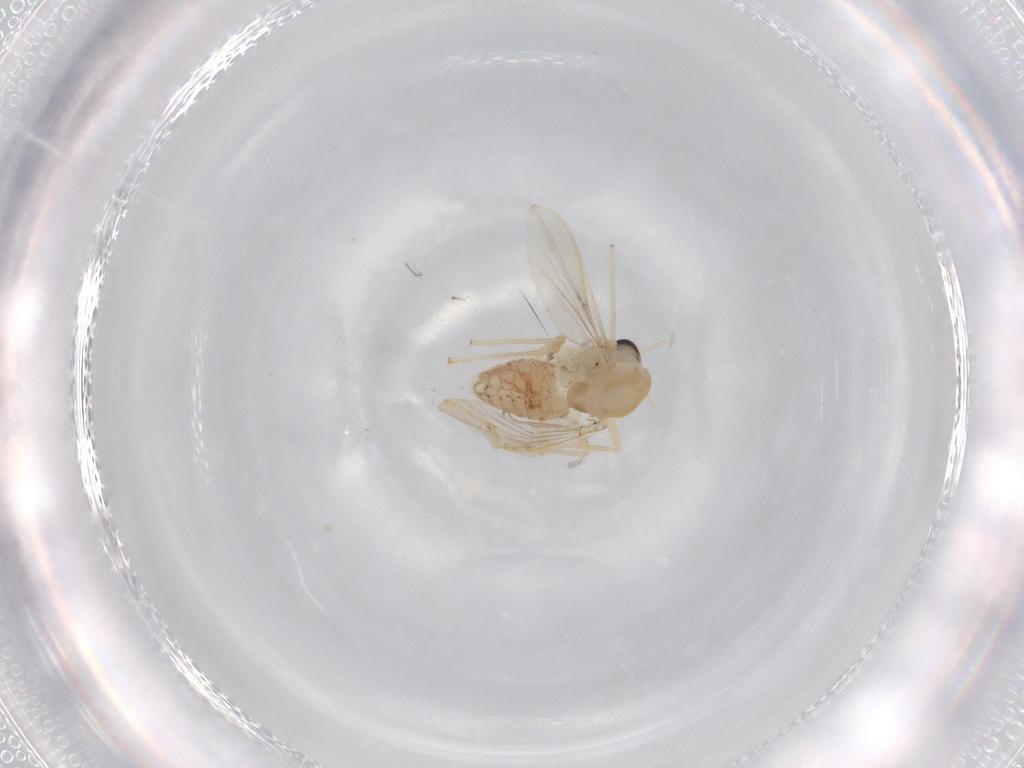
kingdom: Animalia
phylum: Arthropoda
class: Insecta
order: Diptera
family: Chironomidae
